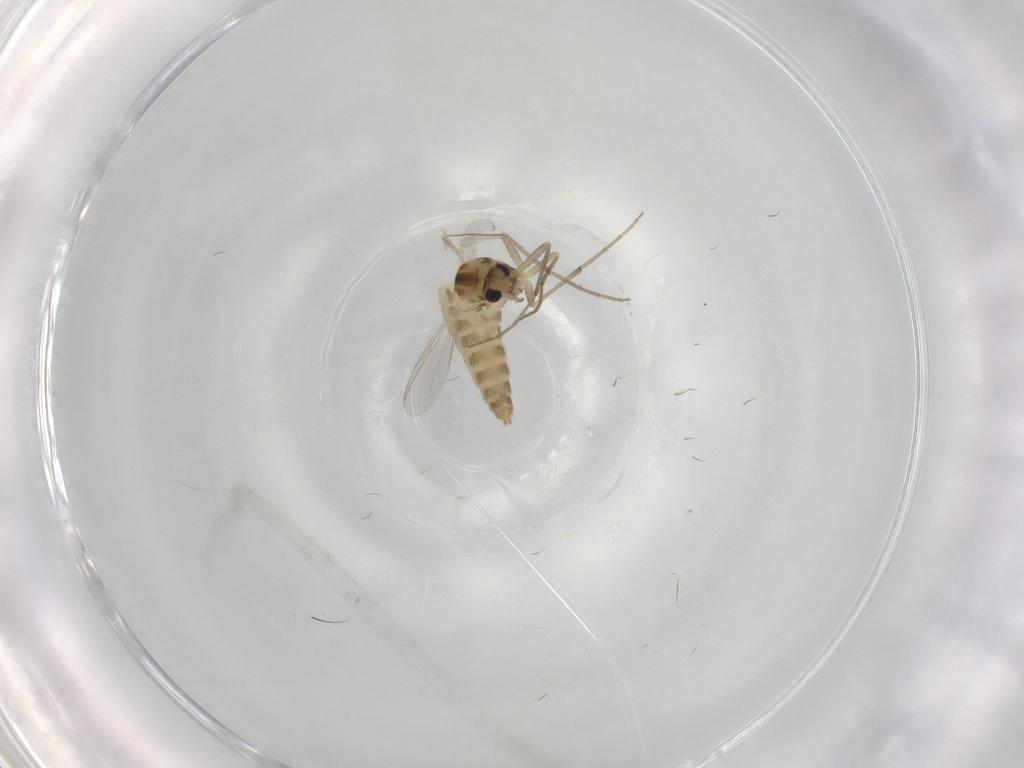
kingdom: Animalia
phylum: Arthropoda
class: Insecta
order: Diptera
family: Chironomidae
